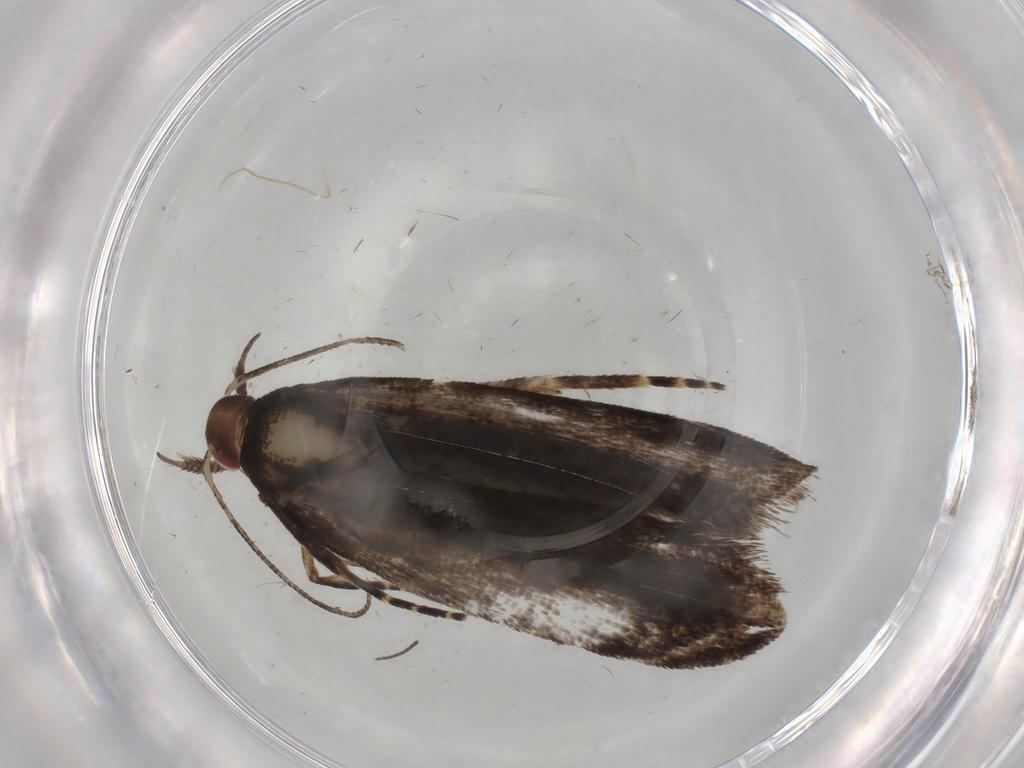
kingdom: Animalia
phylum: Arthropoda
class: Insecta
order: Lepidoptera
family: Gelechiidae
